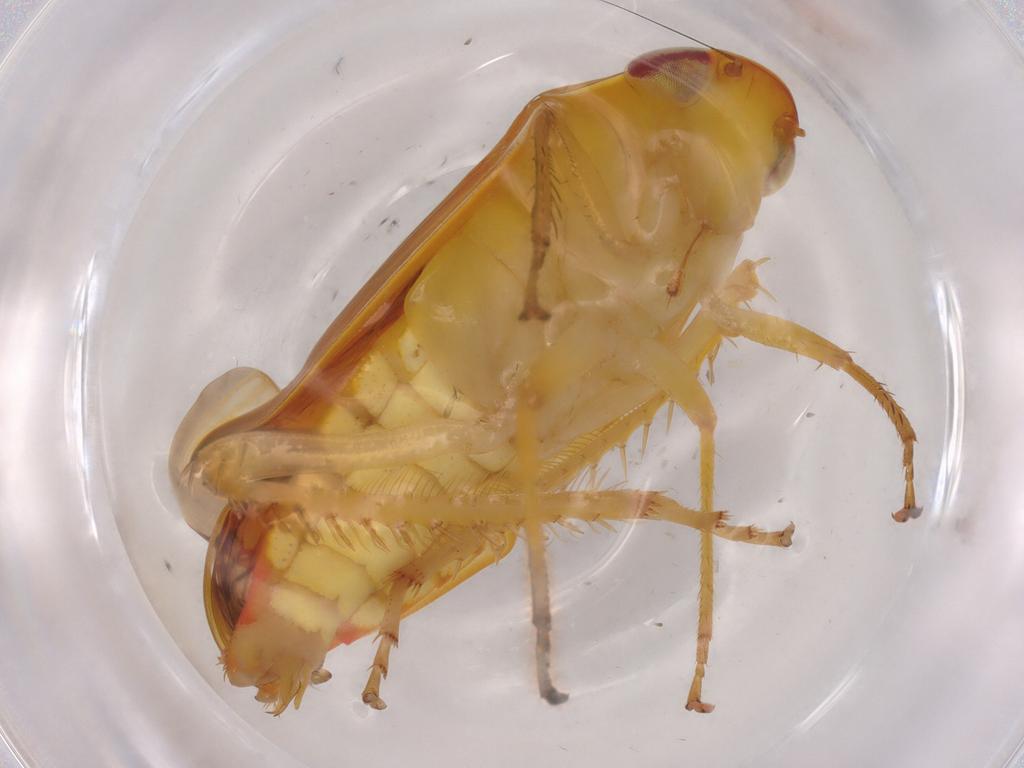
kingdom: Animalia
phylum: Arthropoda
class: Insecta
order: Hemiptera
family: Cicadellidae
